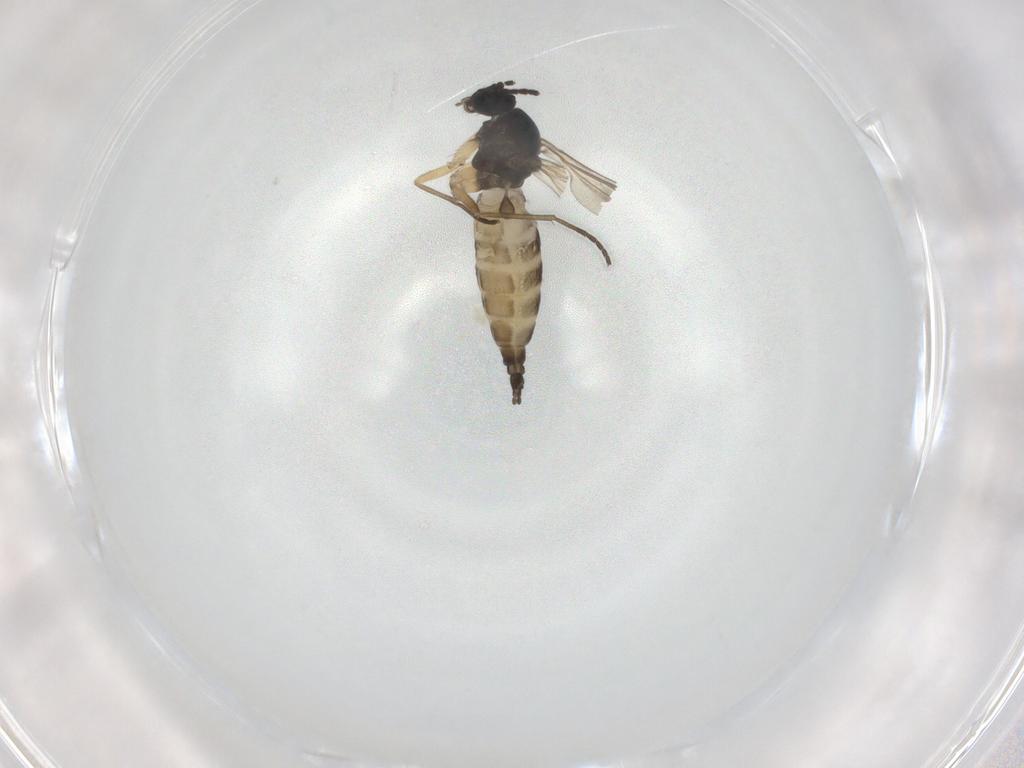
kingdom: Animalia
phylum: Arthropoda
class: Insecta
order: Diptera
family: Sciaridae
